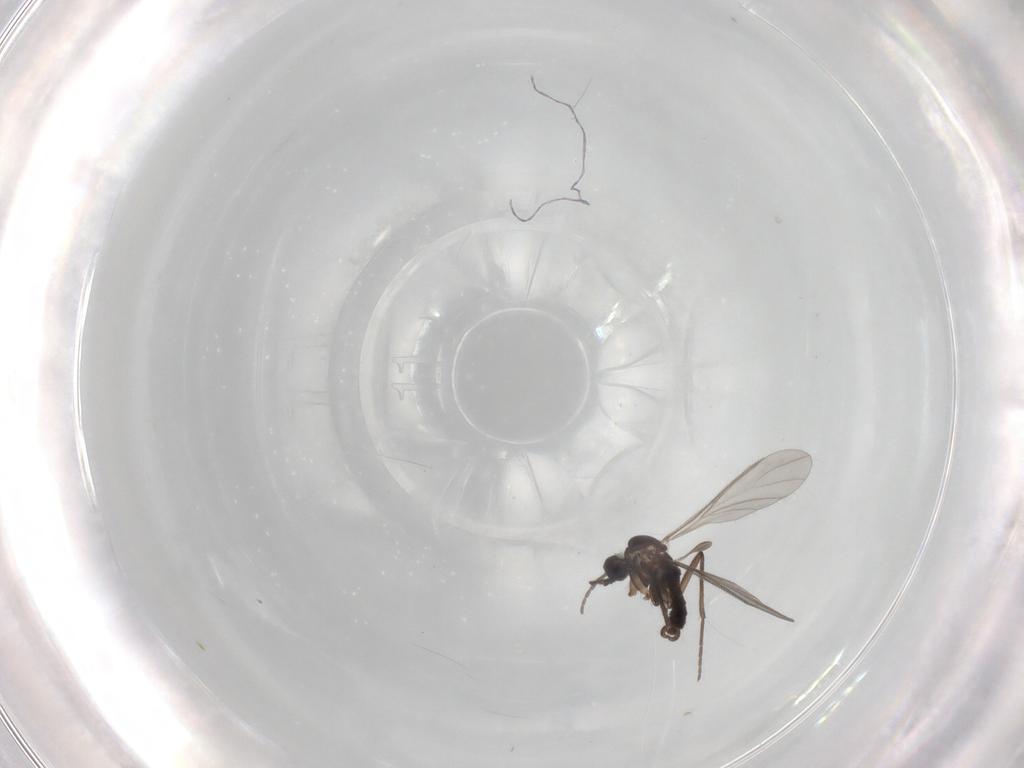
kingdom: Animalia
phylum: Arthropoda
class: Insecta
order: Diptera
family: Sciaridae
